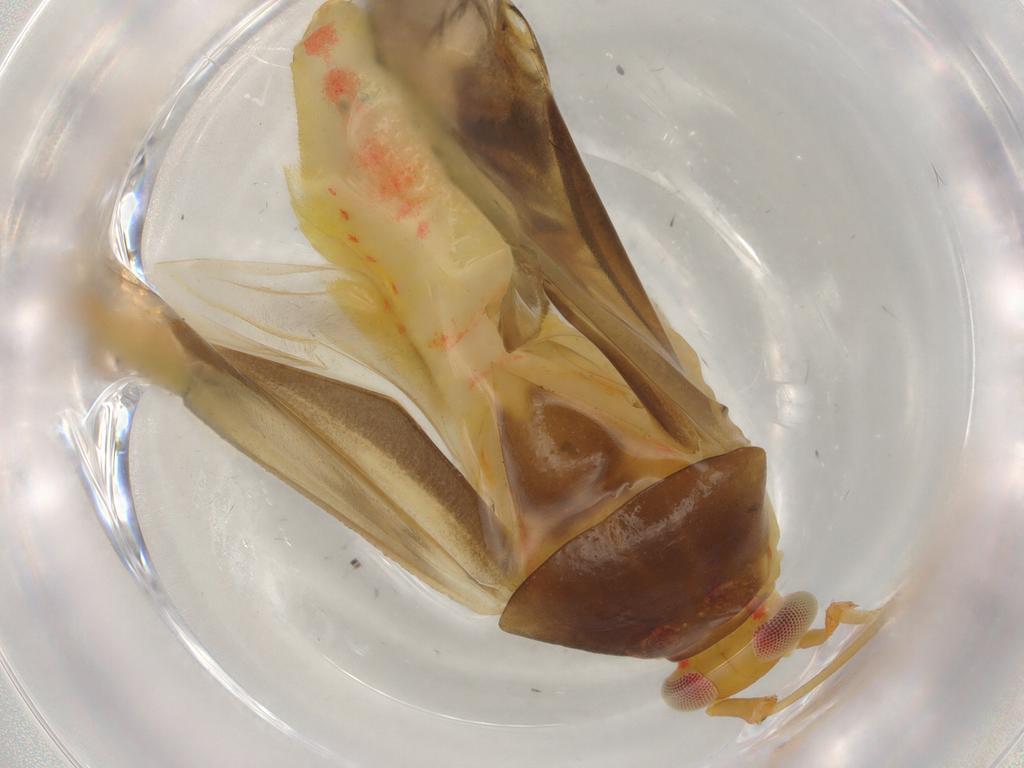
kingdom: Animalia
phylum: Arthropoda
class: Insecta
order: Hemiptera
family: Miridae
